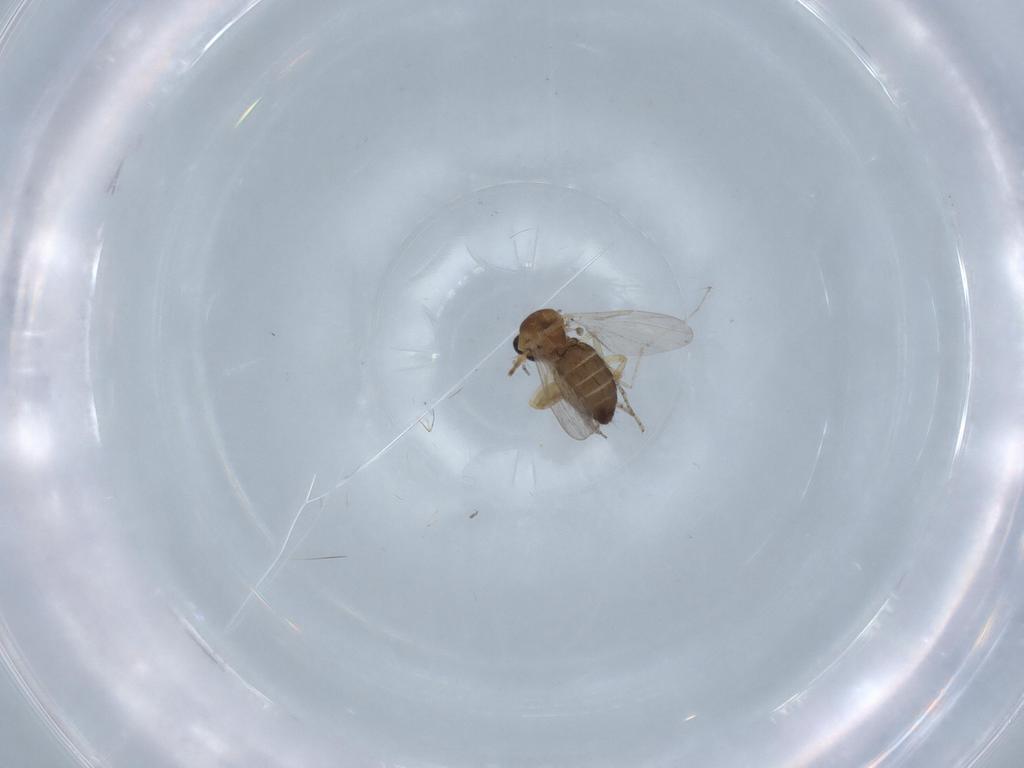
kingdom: Animalia
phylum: Arthropoda
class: Insecta
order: Diptera
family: Ceratopogonidae
